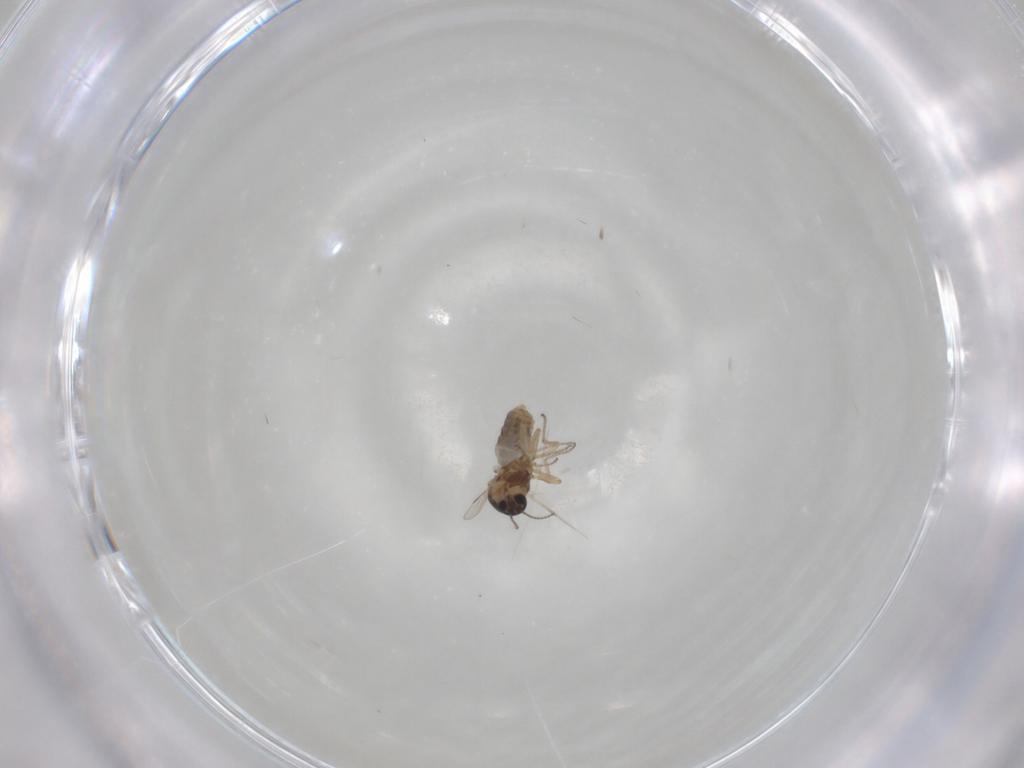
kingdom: Animalia
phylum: Arthropoda
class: Insecta
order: Diptera
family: Ceratopogonidae
